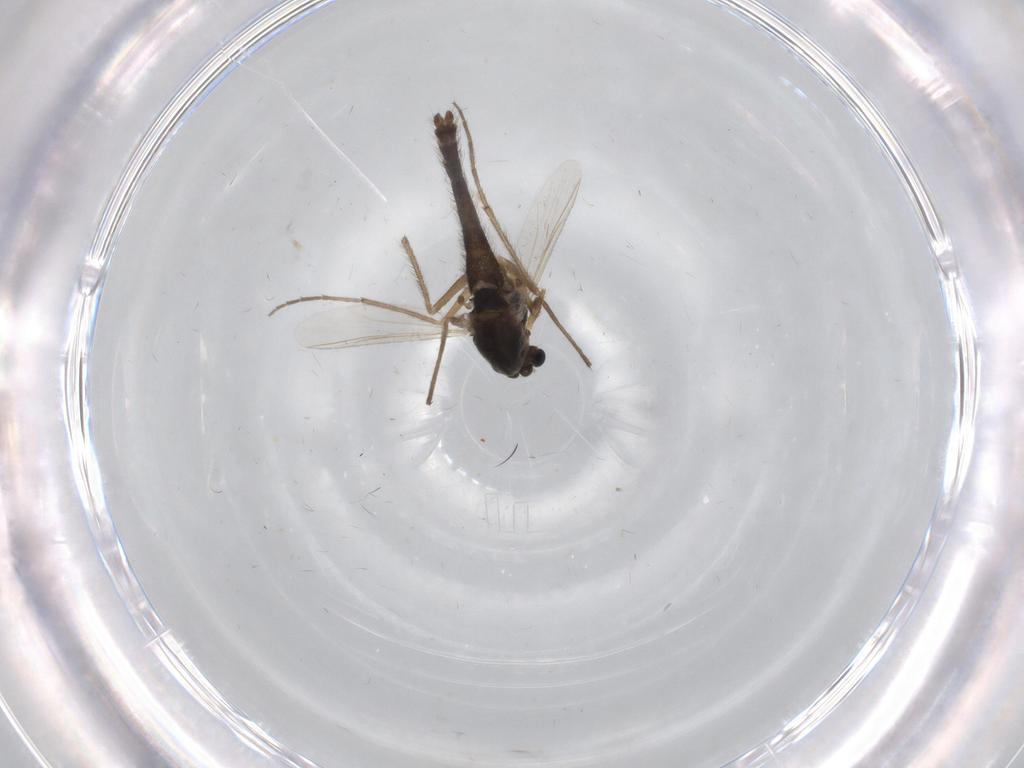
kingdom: Animalia
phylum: Arthropoda
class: Insecta
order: Diptera
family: Chironomidae
